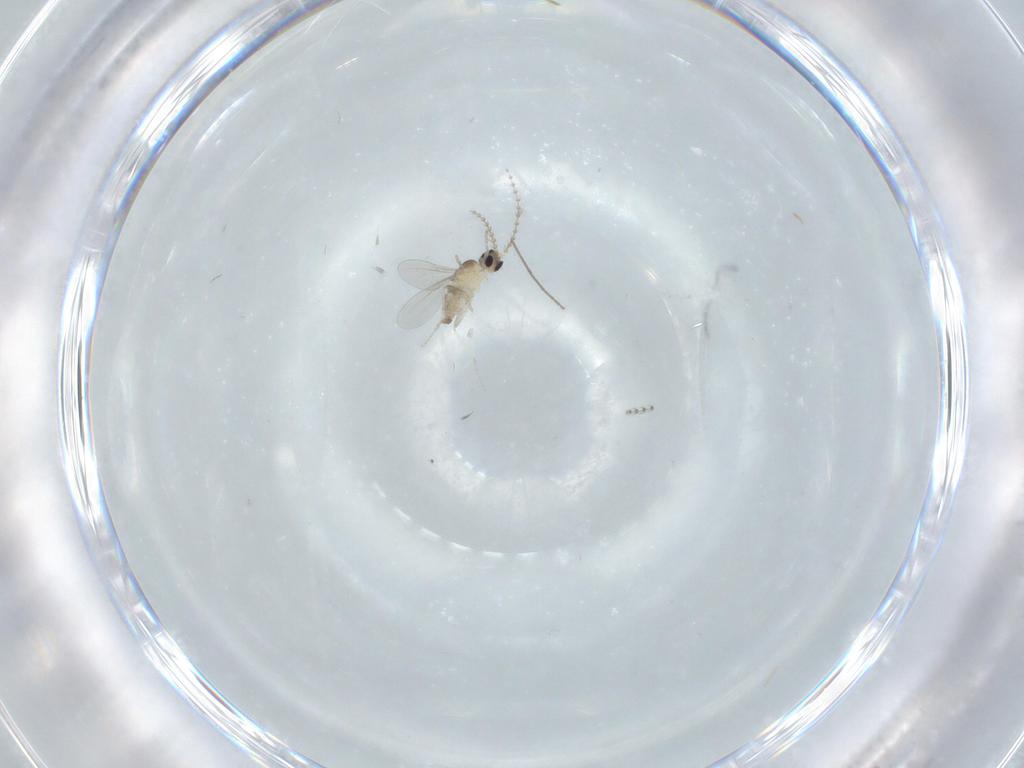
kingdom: Animalia
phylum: Arthropoda
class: Insecta
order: Diptera
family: Cecidomyiidae
